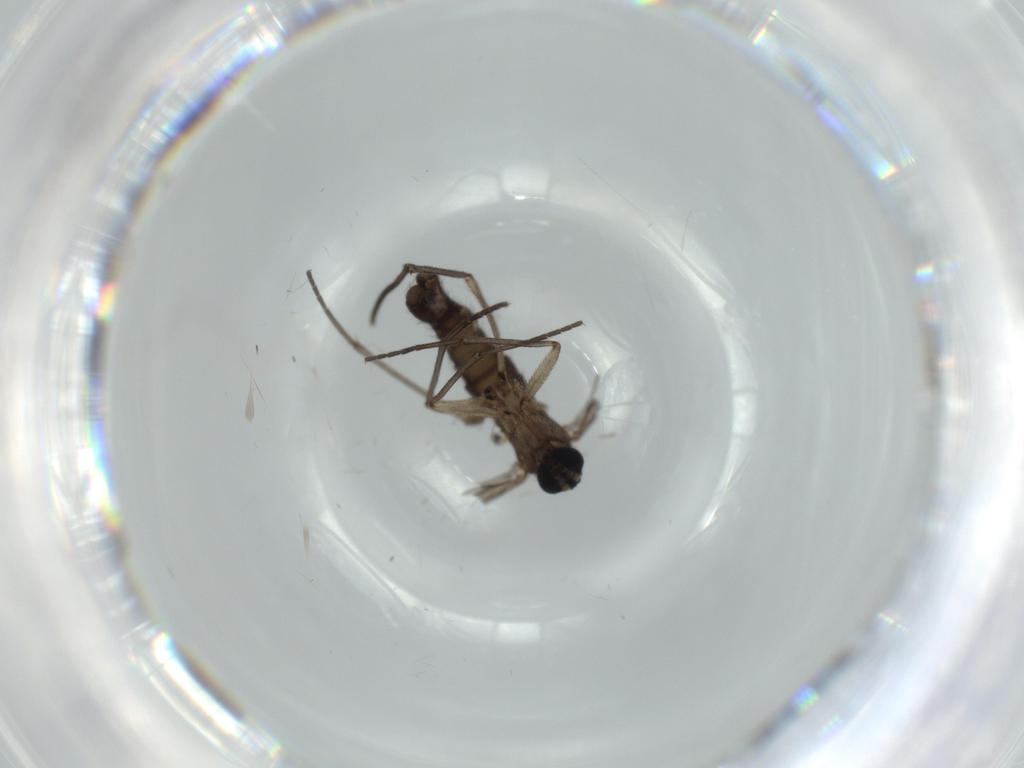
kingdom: Animalia
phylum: Arthropoda
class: Insecta
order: Diptera
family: Sciaridae
